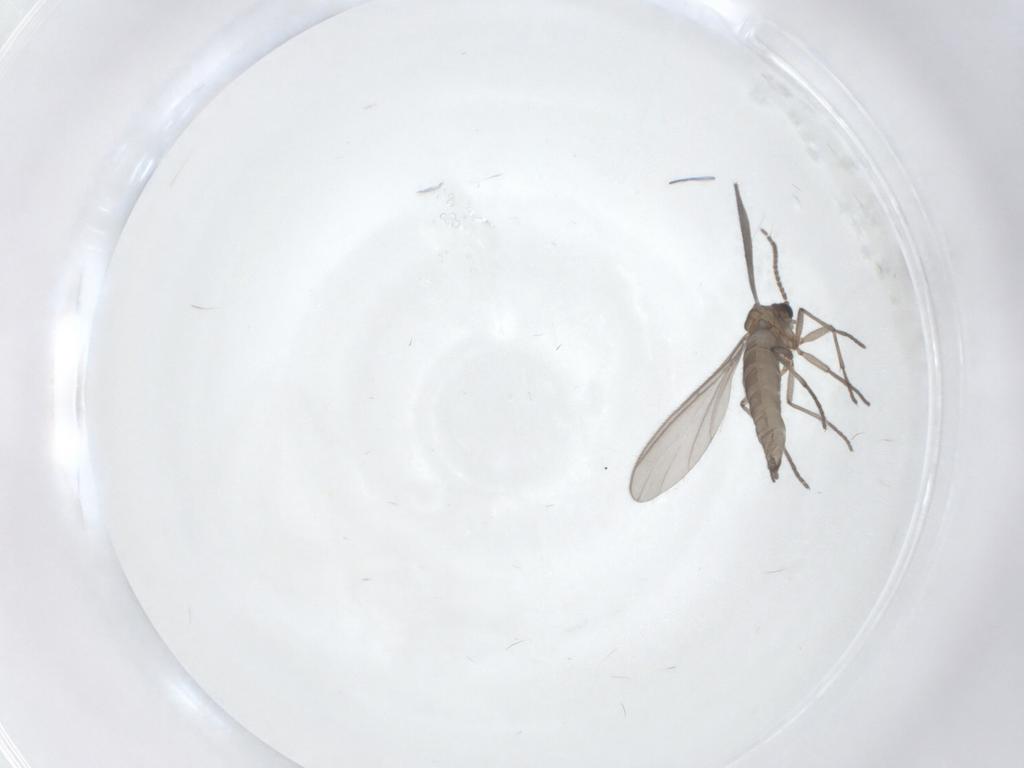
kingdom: Animalia
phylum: Arthropoda
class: Insecta
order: Diptera
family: Sciaridae
